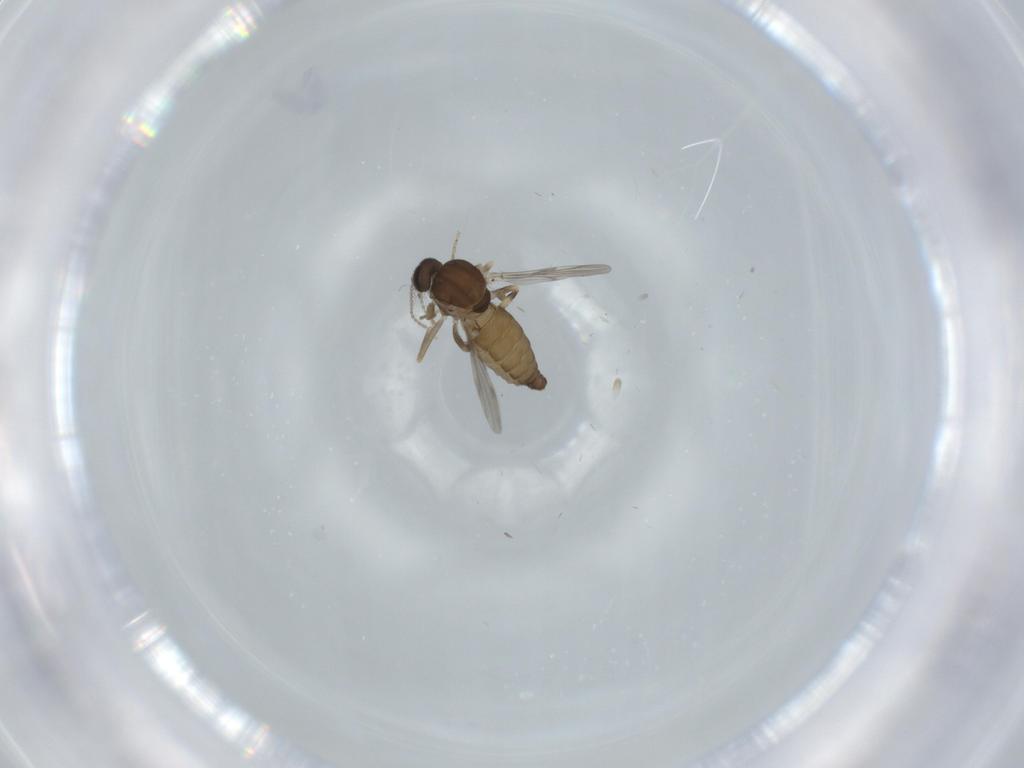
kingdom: Animalia
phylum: Arthropoda
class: Insecta
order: Diptera
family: Ceratopogonidae
